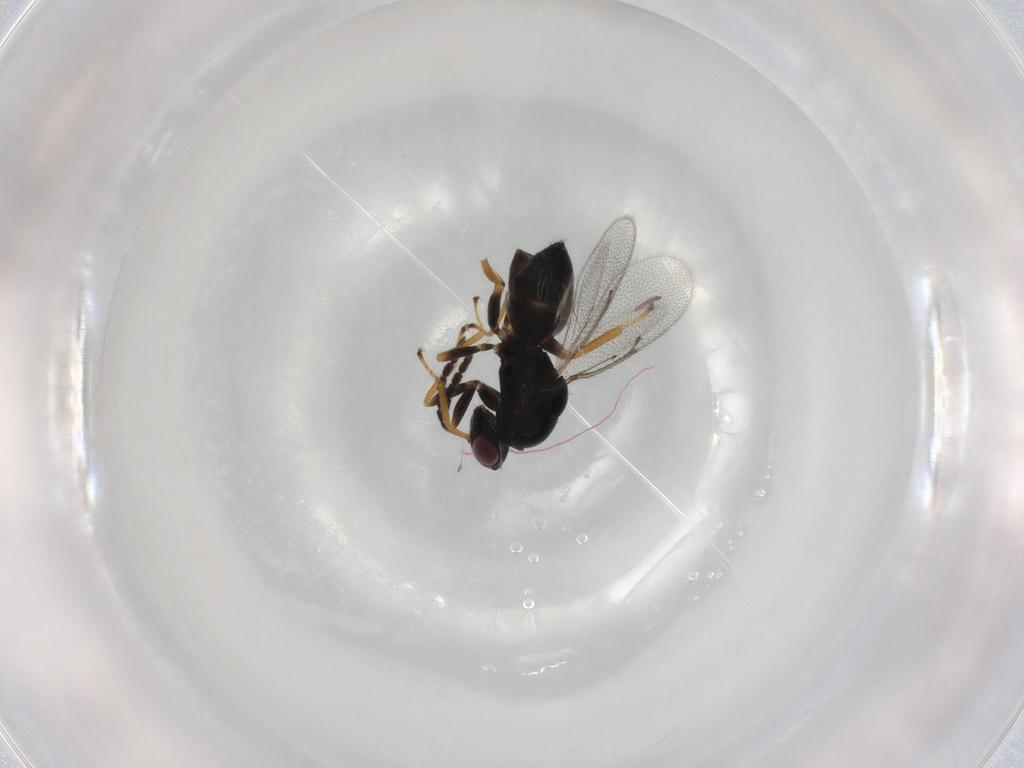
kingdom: Animalia
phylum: Arthropoda
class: Insecta
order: Hymenoptera
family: Eulophidae
